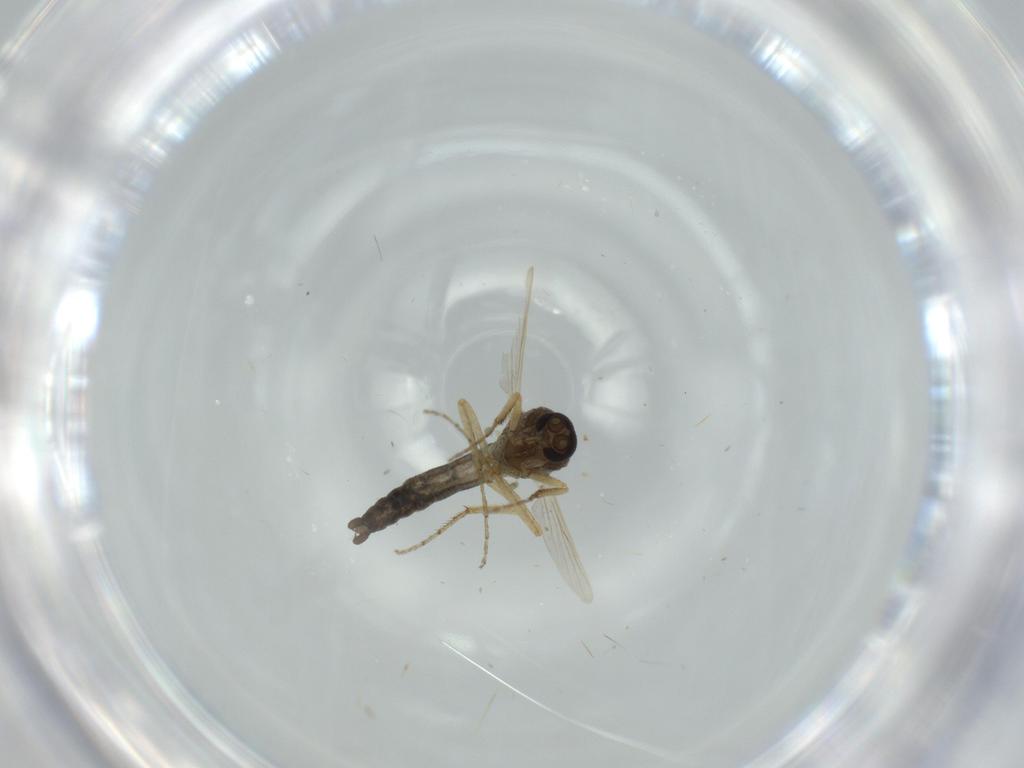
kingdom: Animalia
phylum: Arthropoda
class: Insecta
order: Diptera
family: Ceratopogonidae
